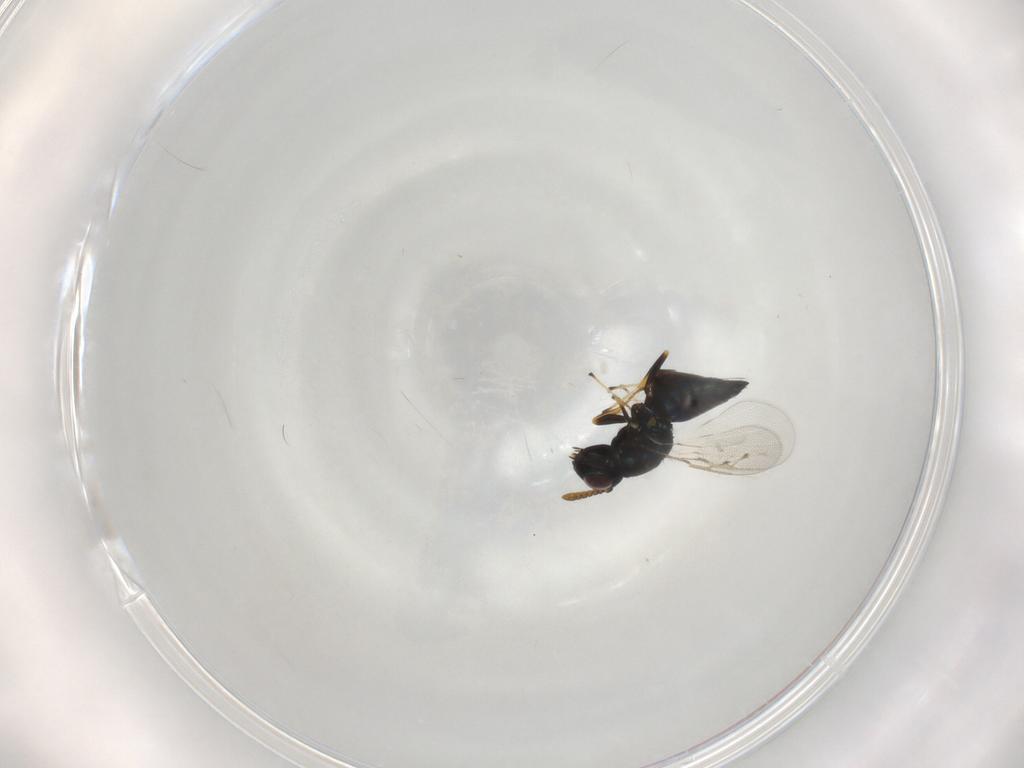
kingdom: Animalia
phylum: Arthropoda
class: Insecta
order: Hymenoptera
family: Pteromalidae
